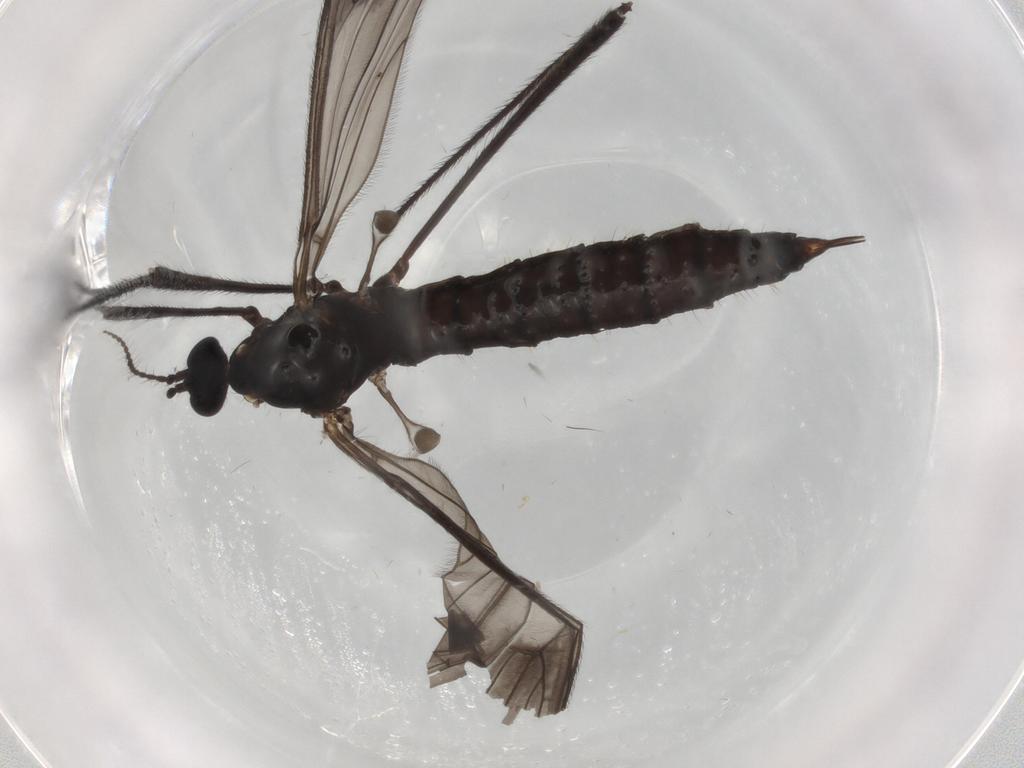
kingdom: Animalia
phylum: Arthropoda
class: Insecta
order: Diptera
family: Limoniidae
